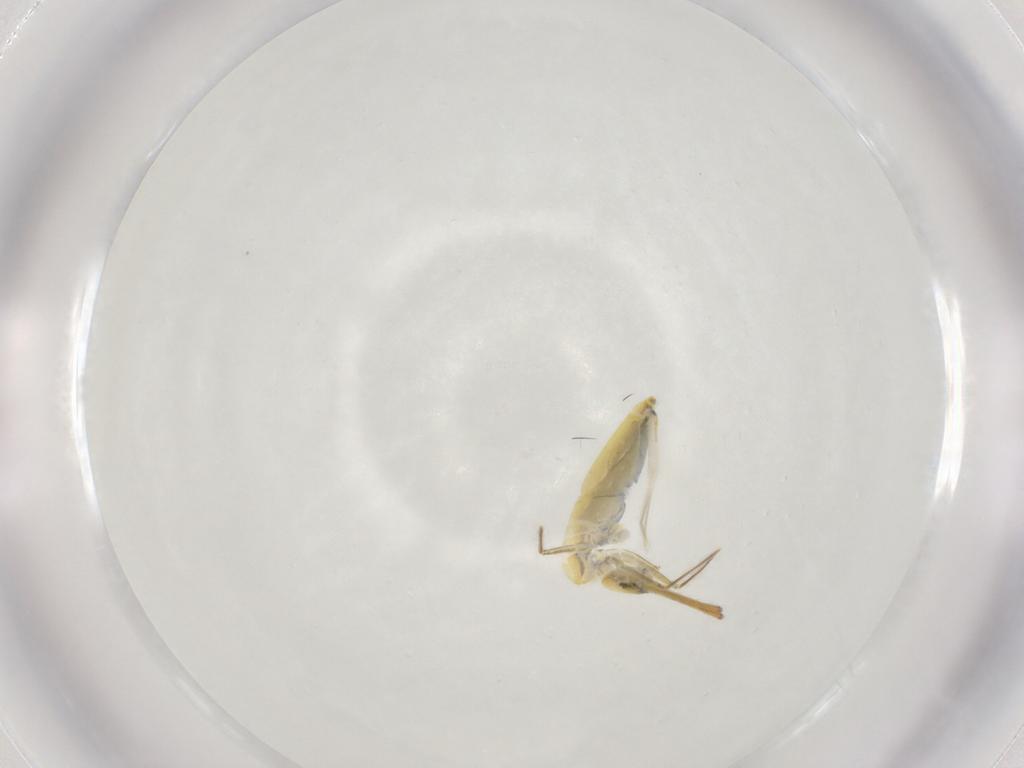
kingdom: Animalia
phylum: Arthropoda
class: Collembola
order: Entomobryomorpha
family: Entomobryidae
